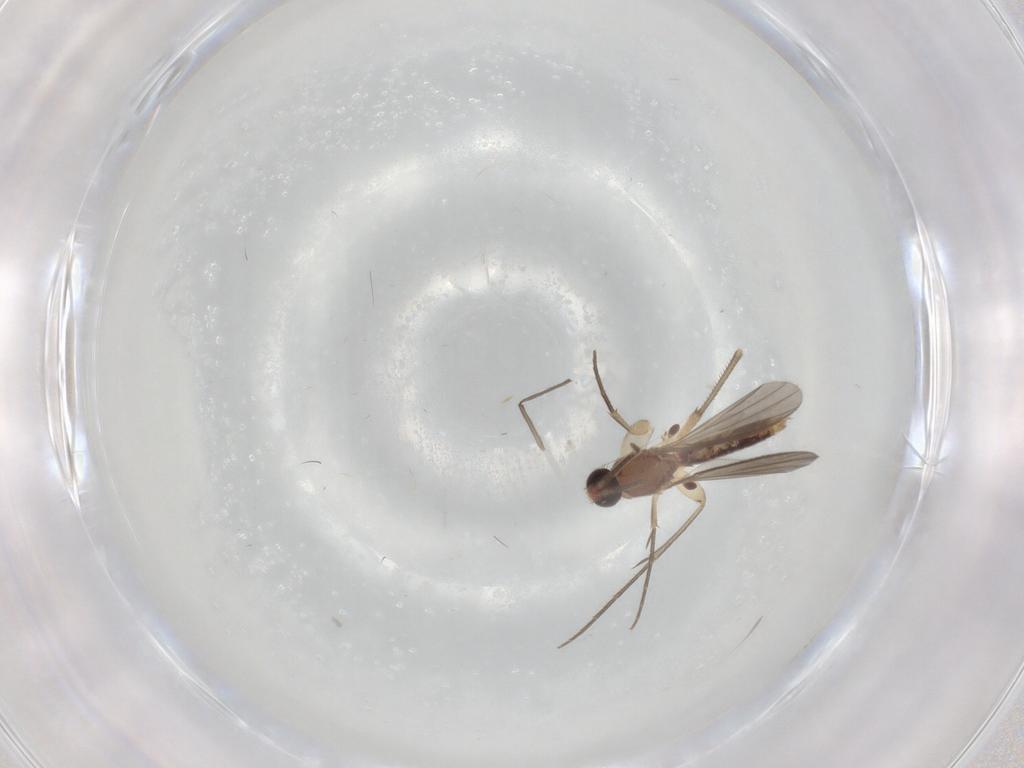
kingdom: Animalia
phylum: Arthropoda
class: Insecta
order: Diptera
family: Mycetophilidae
